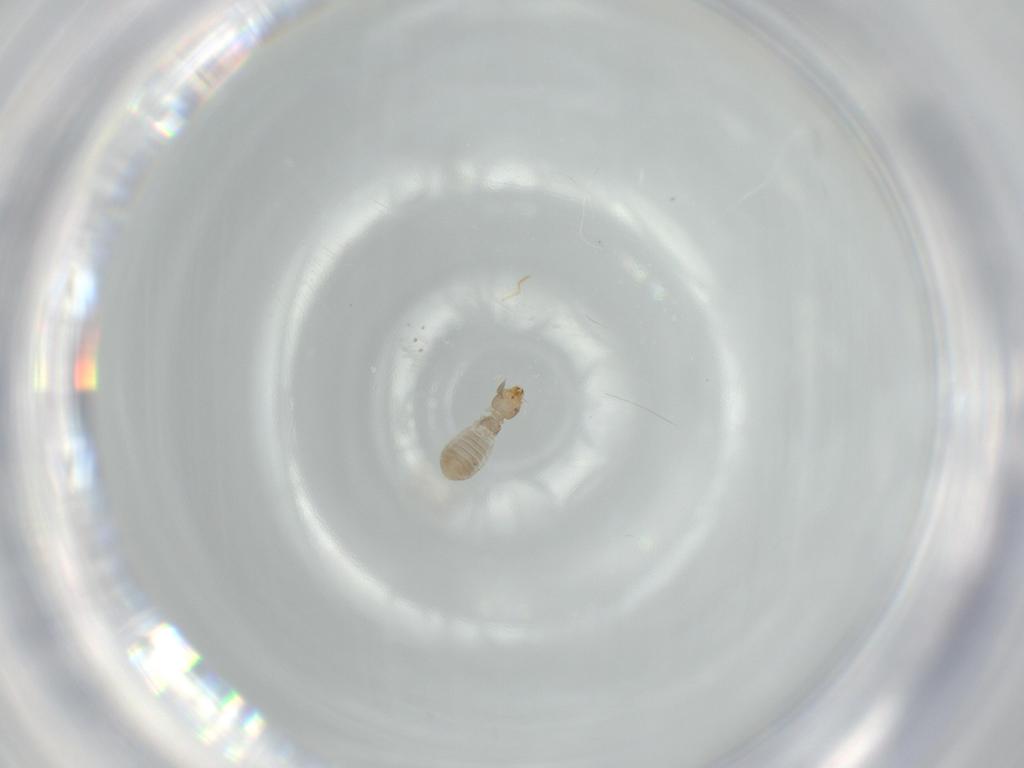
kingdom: Animalia
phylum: Arthropoda
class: Insecta
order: Psocodea
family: Liposcelididae
